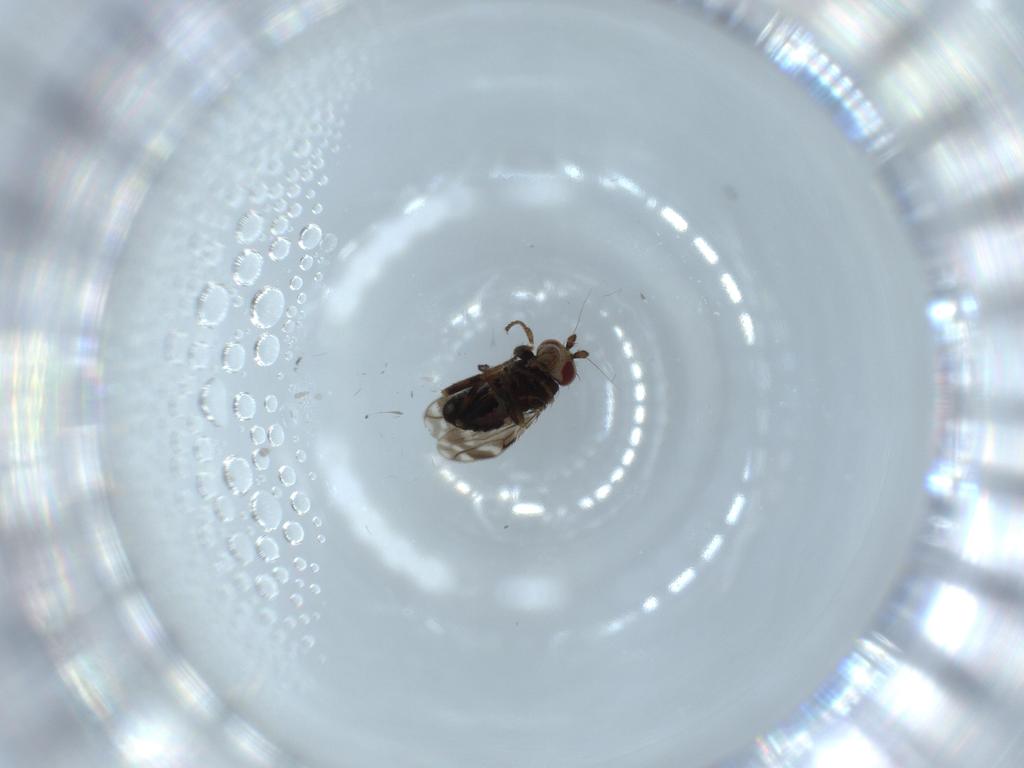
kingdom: Animalia
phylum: Arthropoda
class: Insecta
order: Diptera
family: Sphaeroceridae
